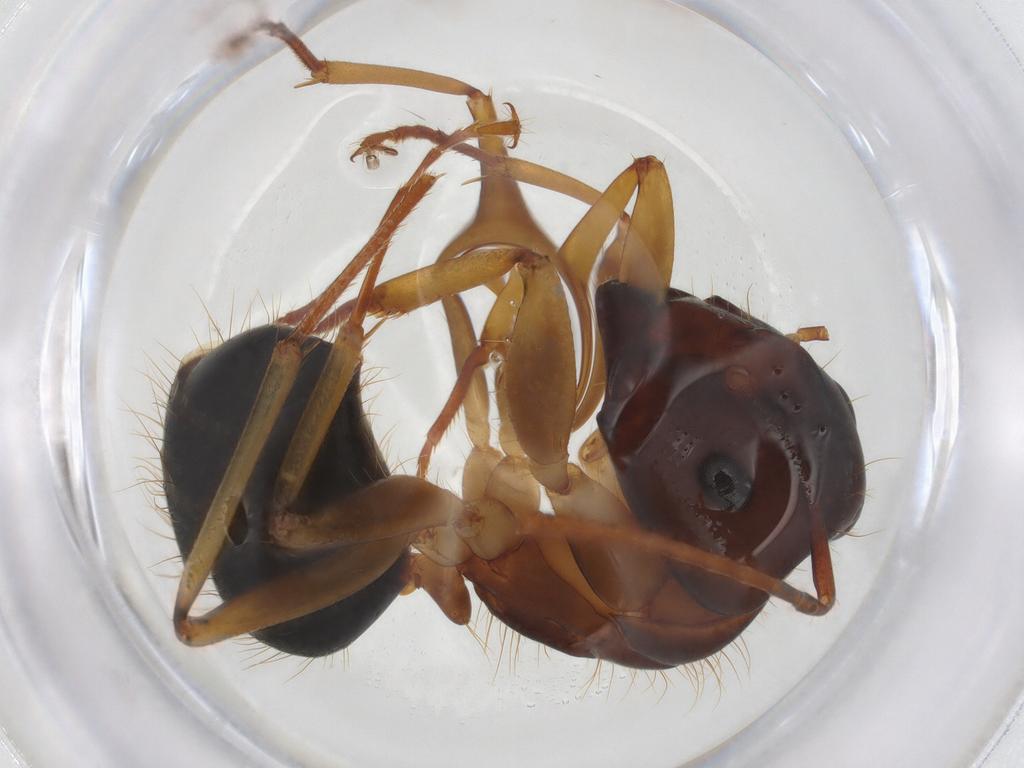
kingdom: Animalia
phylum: Arthropoda
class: Insecta
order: Hymenoptera
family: Formicidae
